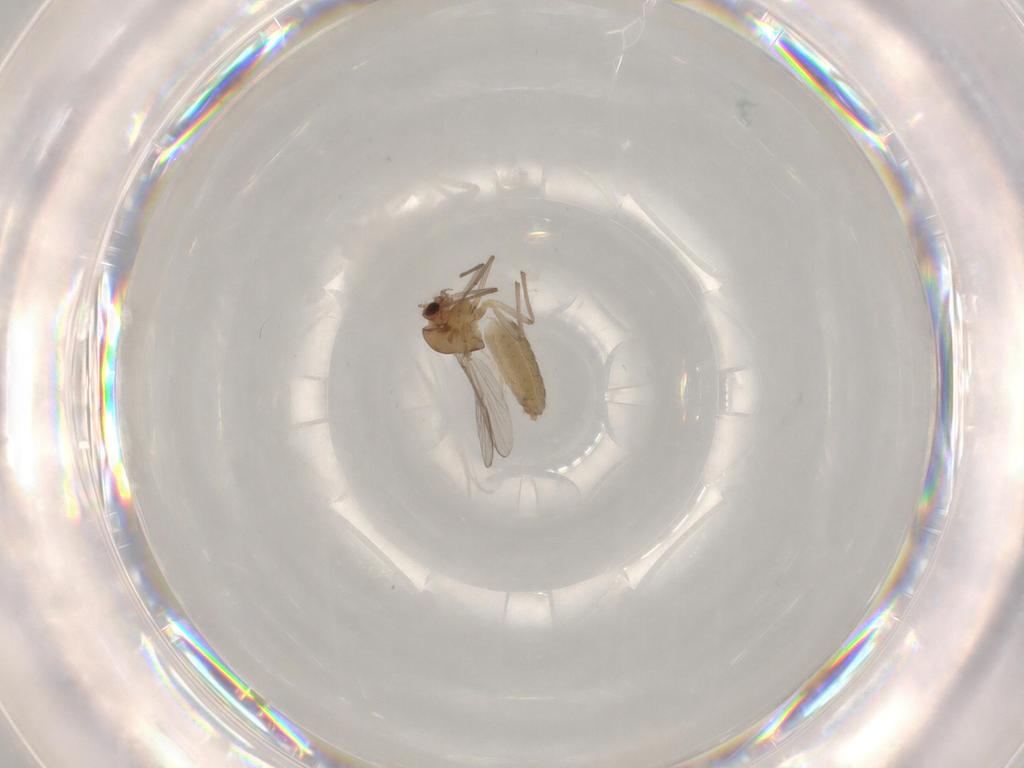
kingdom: Animalia
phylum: Arthropoda
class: Insecta
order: Diptera
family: Chironomidae
